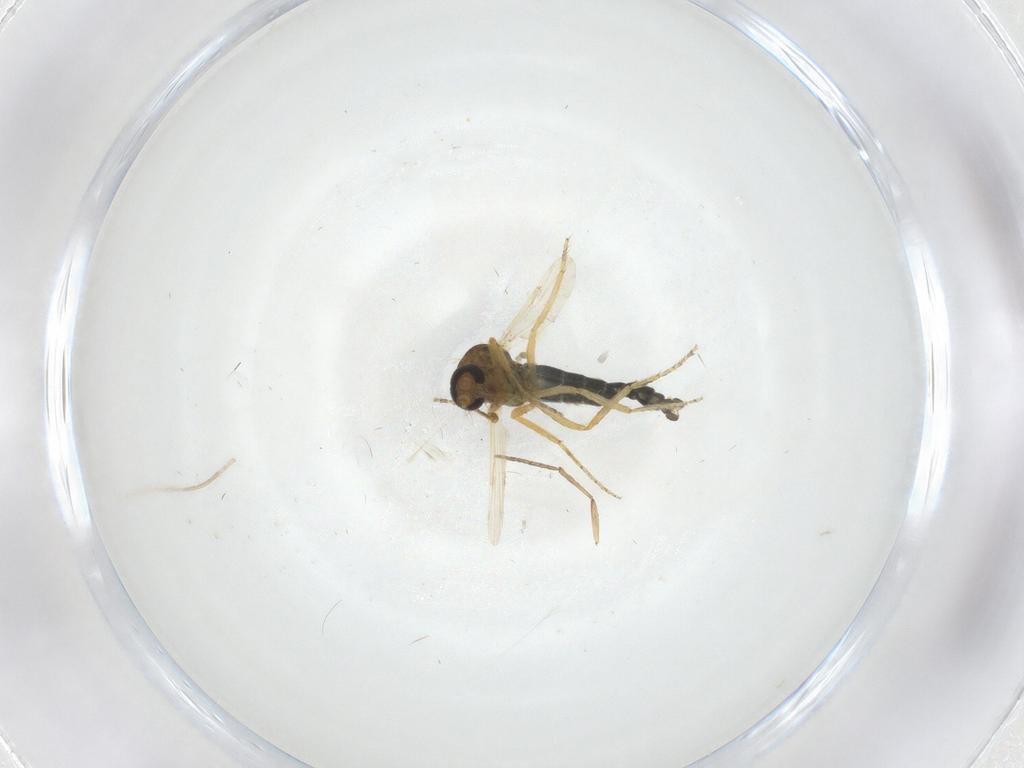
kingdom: Animalia
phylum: Arthropoda
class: Insecta
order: Diptera
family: Ceratopogonidae
